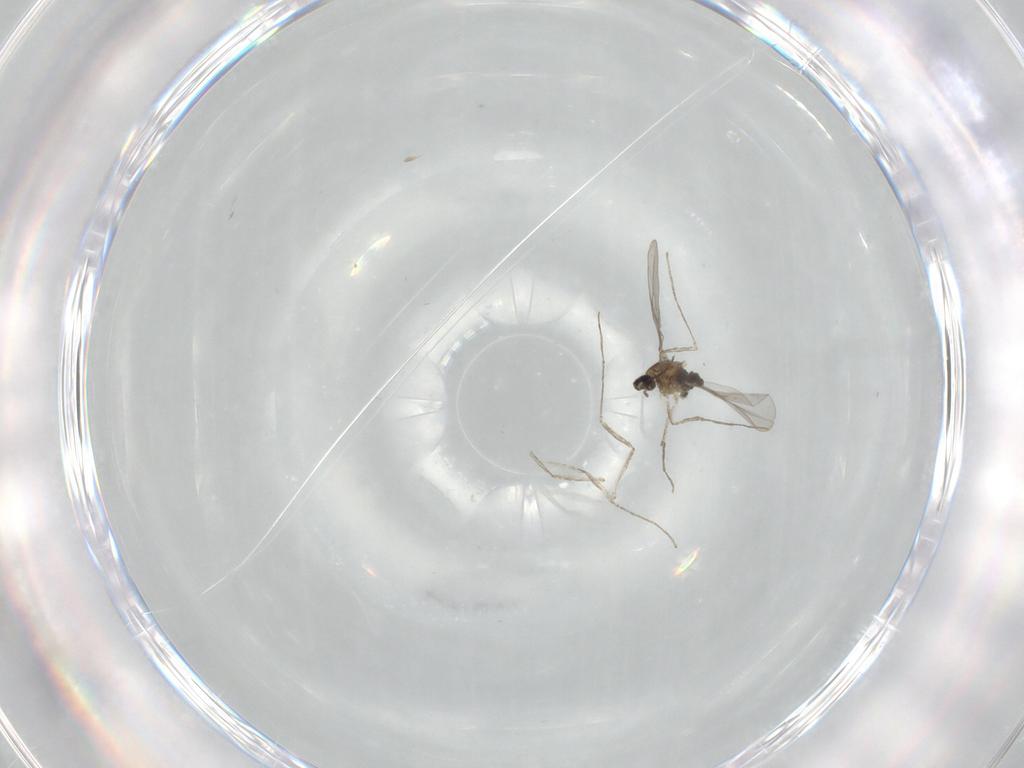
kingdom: Animalia
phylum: Arthropoda
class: Insecta
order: Diptera
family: Cecidomyiidae
